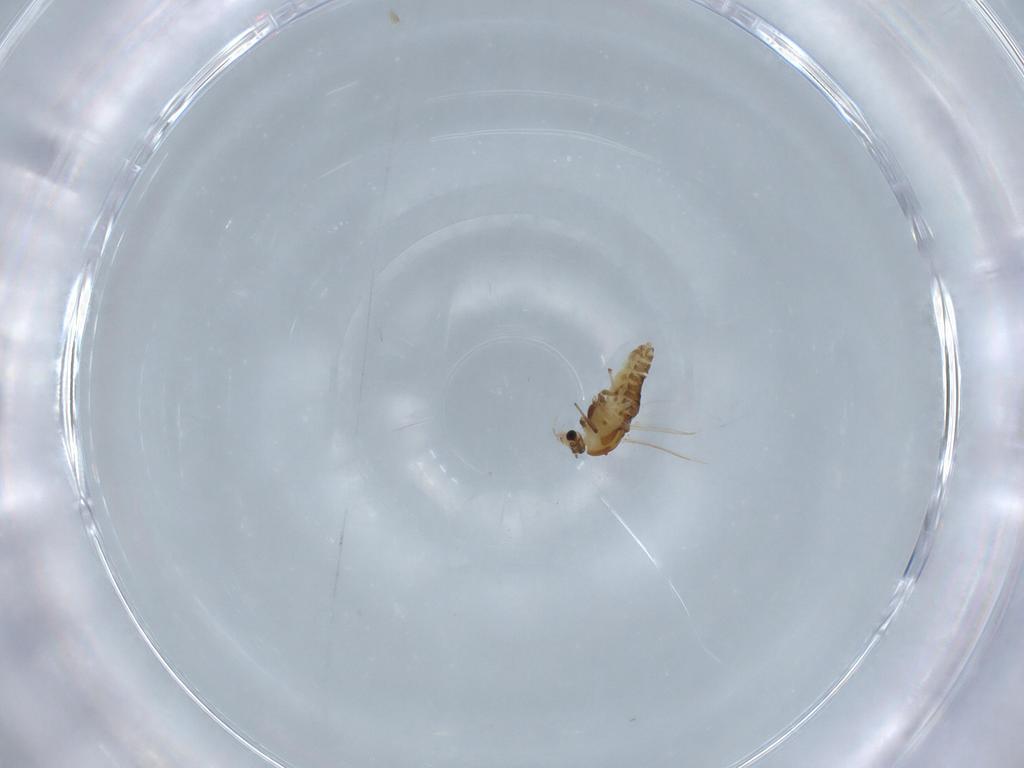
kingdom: Animalia
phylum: Arthropoda
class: Insecta
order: Diptera
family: Chironomidae
